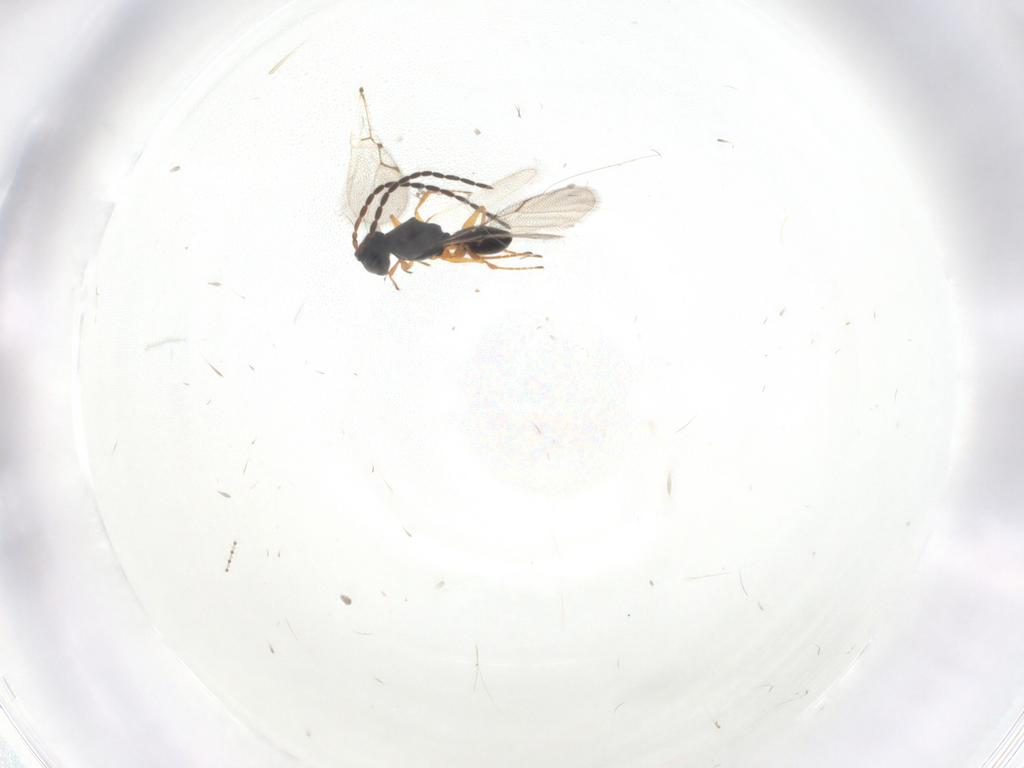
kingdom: Animalia
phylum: Arthropoda
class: Insecta
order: Hymenoptera
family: Figitidae
